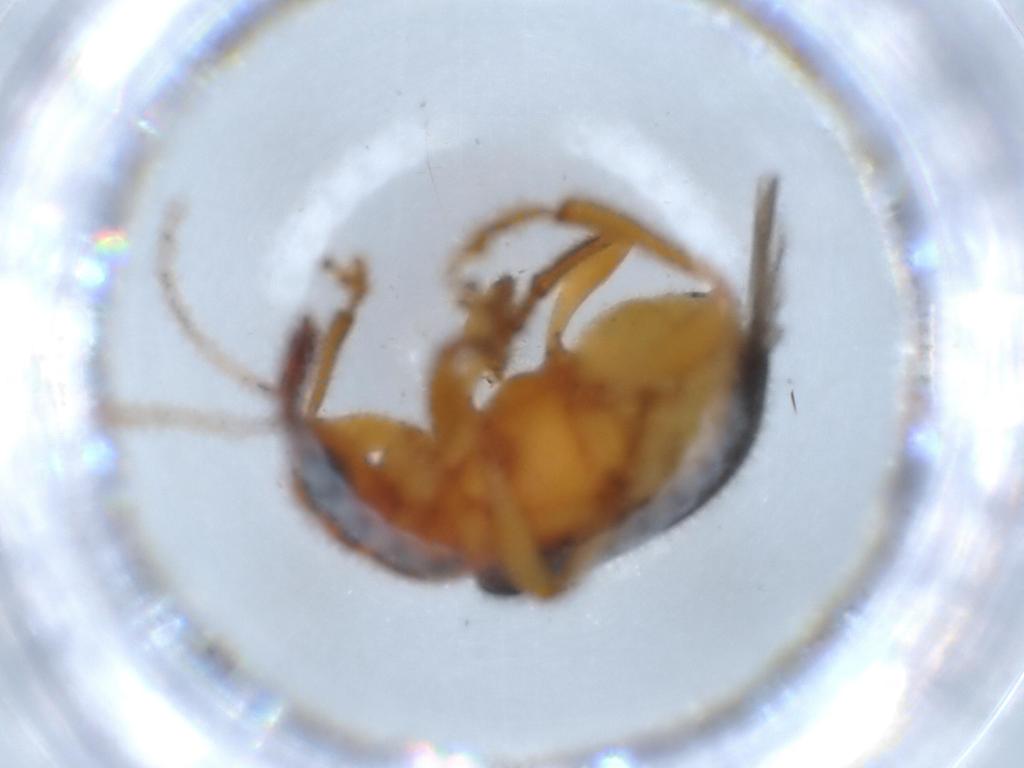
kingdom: Animalia
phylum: Arthropoda
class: Insecta
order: Coleoptera
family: Attelabidae
